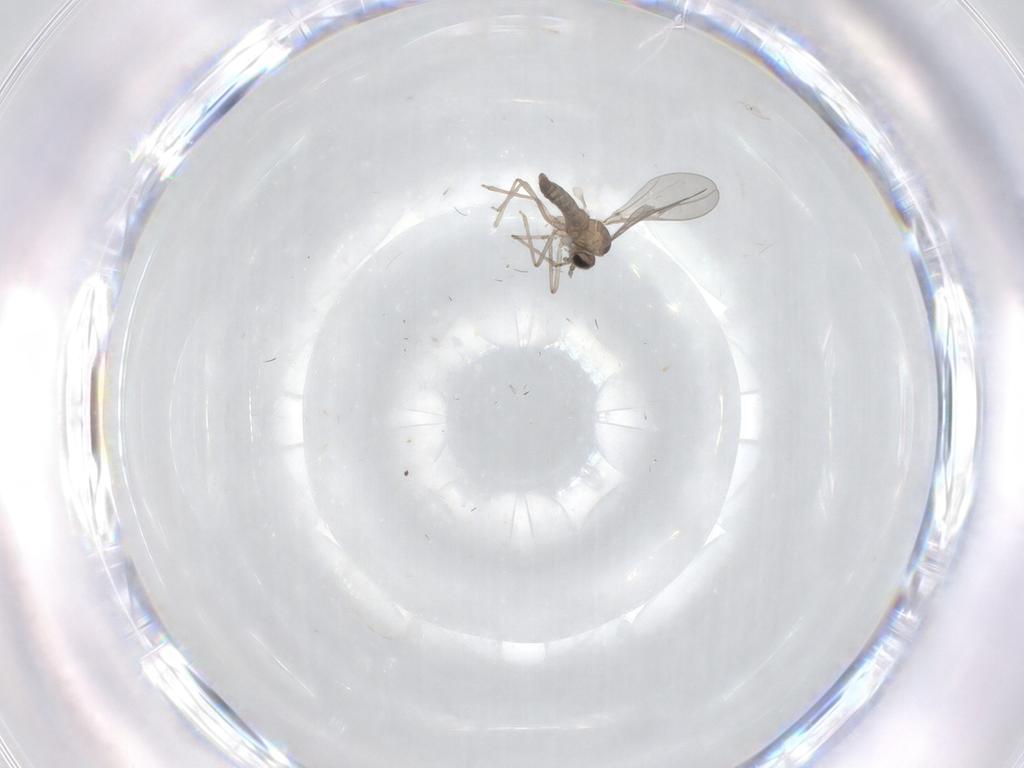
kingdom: Animalia
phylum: Arthropoda
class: Insecta
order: Diptera
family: Cecidomyiidae
